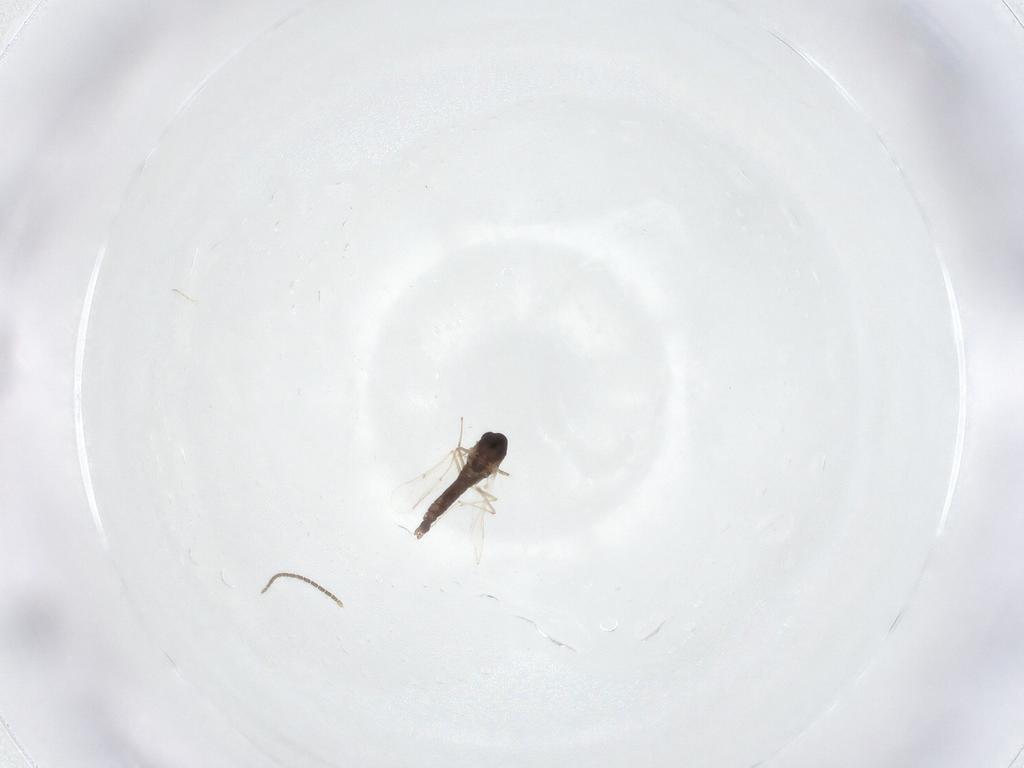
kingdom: Animalia
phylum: Arthropoda
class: Insecta
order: Diptera
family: Chironomidae
